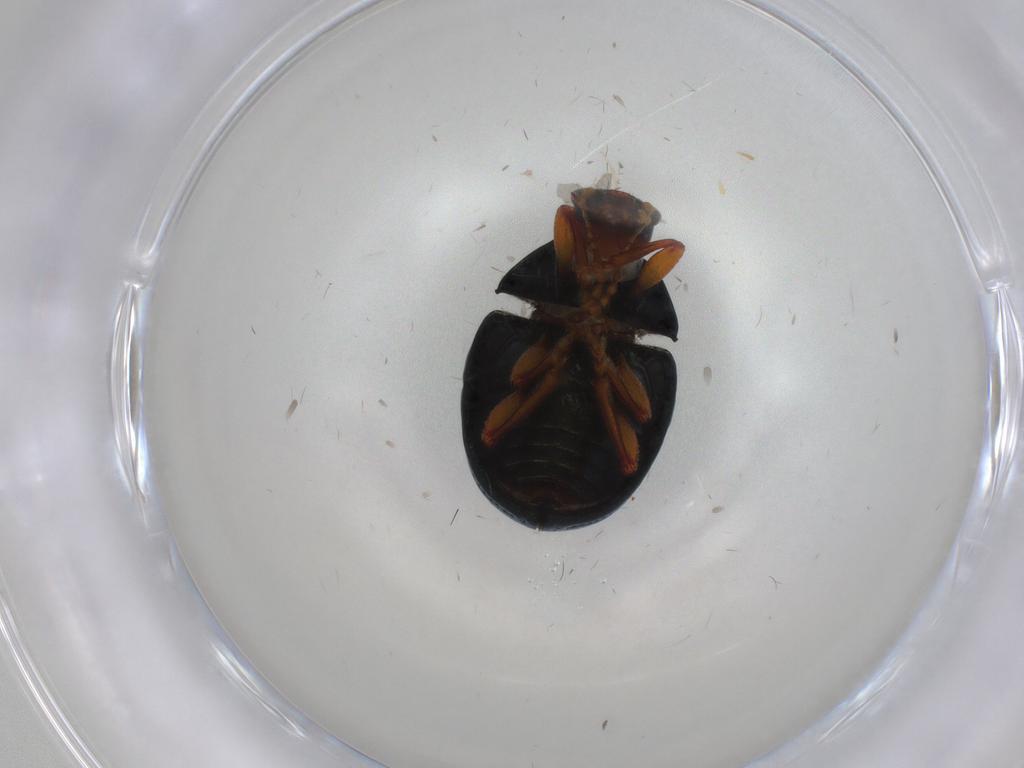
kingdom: Animalia
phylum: Arthropoda
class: Insecta
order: Coleoptera
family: Chrysomelidae
